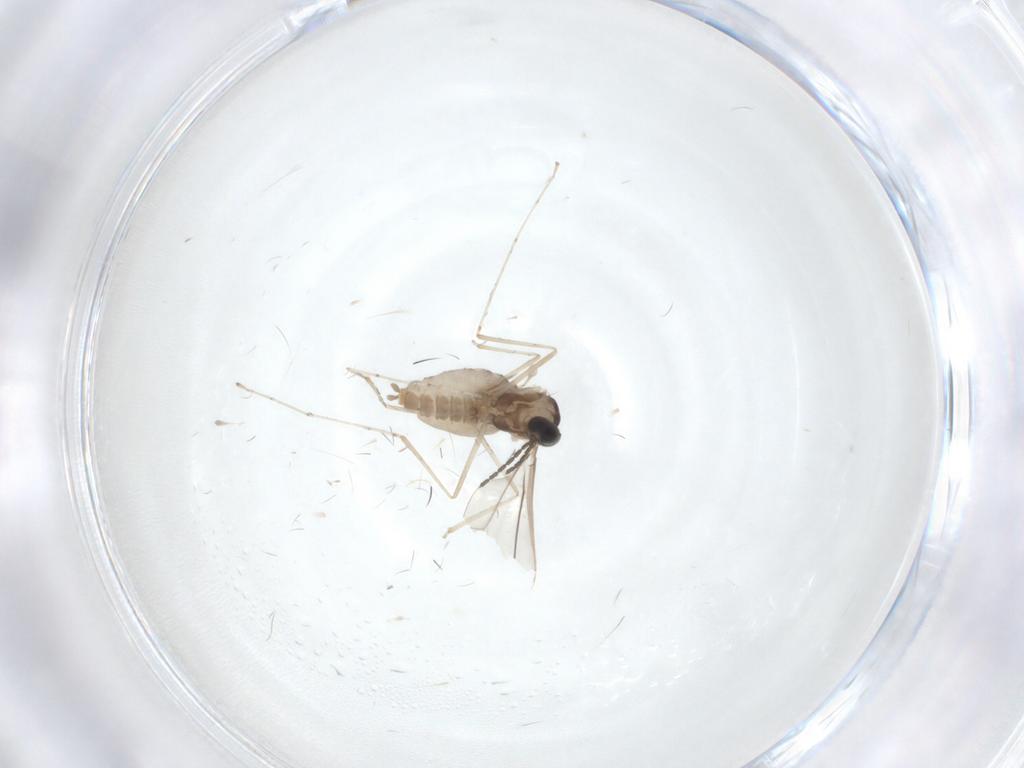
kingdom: Animalia
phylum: Arthropoda
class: Insecta
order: Diptera
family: Cecidomyiidae
